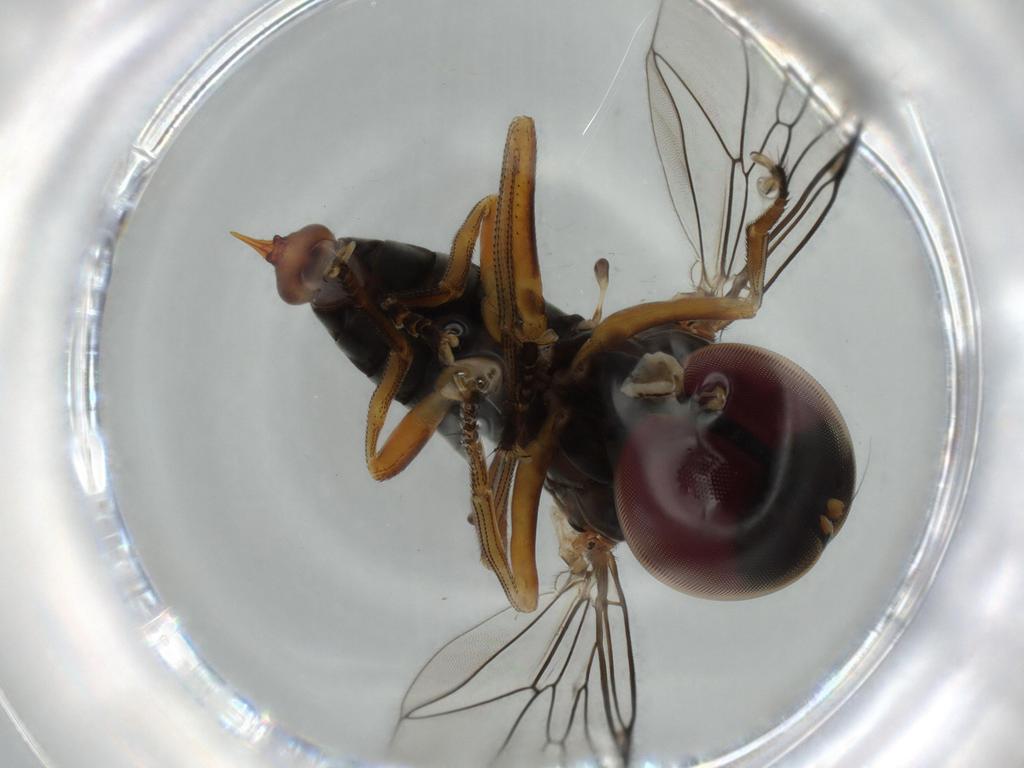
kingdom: Animalia
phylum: Arthropoda
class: Insecta
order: Diptera
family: Pipunculidae
